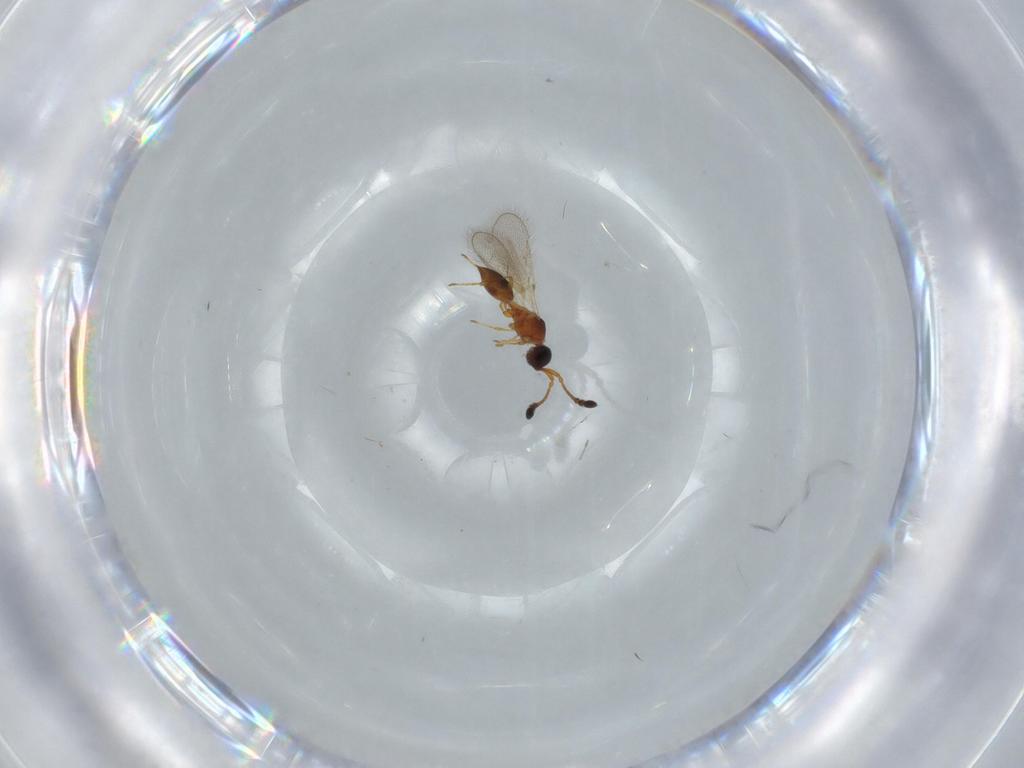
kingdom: Animalia
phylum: Arthropoda
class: Insecta
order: Hymenoptera
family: Diapriidae
